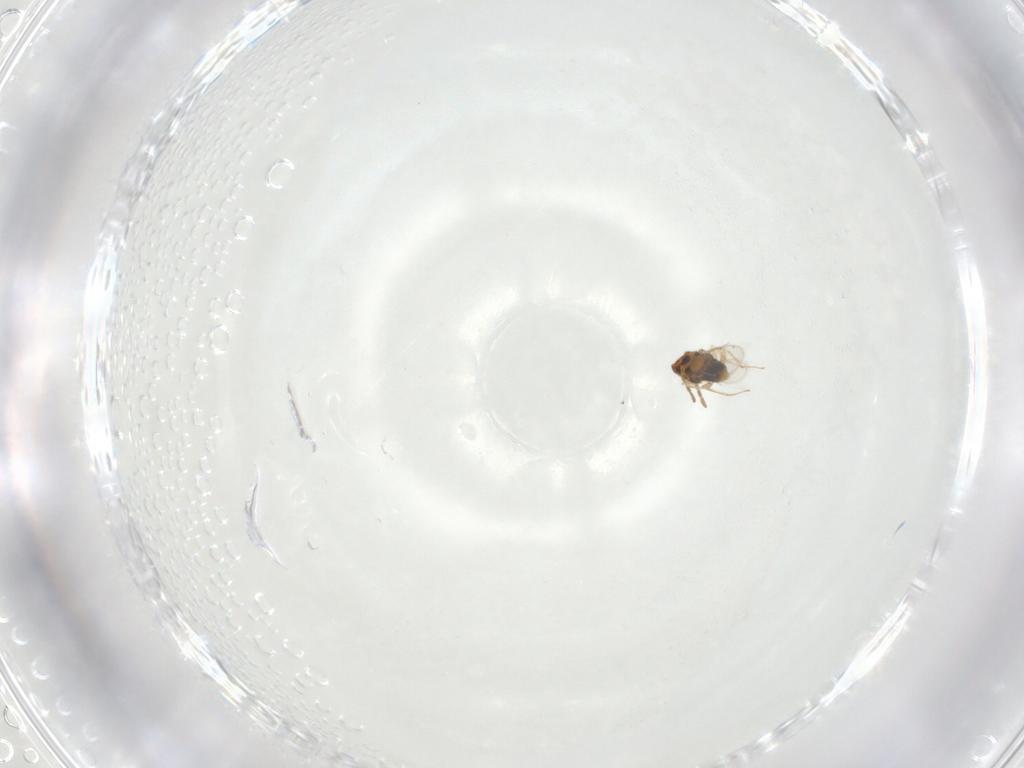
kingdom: Animalia
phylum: Arthropoda
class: Insecta
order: Hymenoptera
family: Aphelinidae
